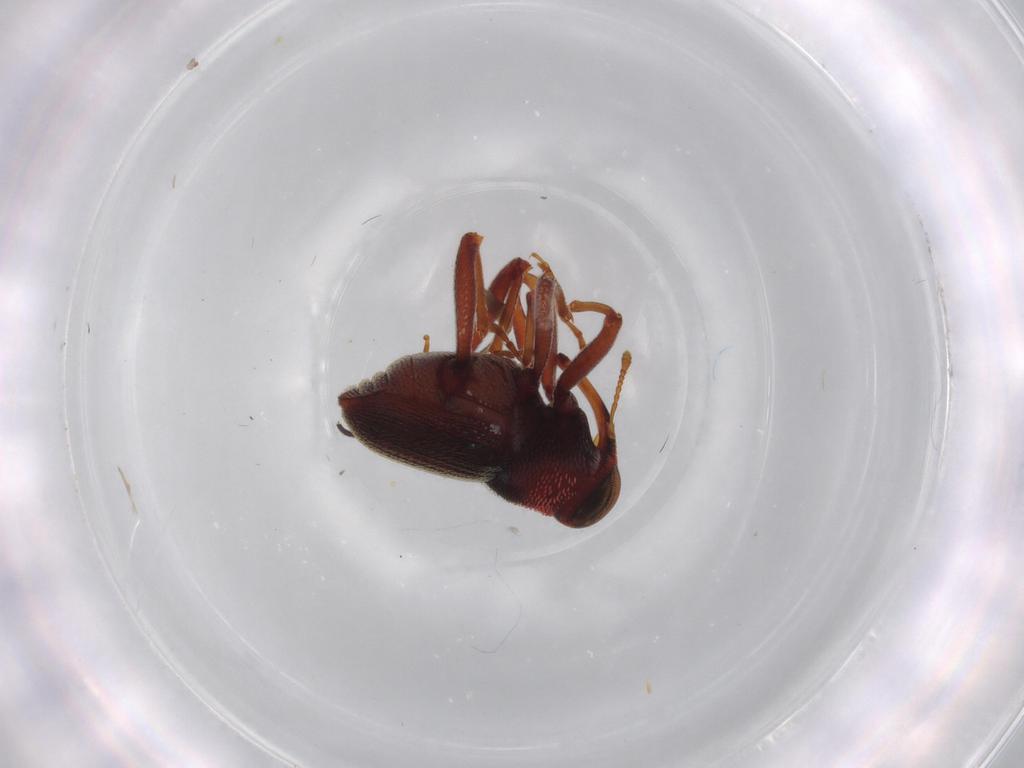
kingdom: Animalia
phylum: Arthropoda
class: Insecta
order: Coleoptera
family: Curculionidae
